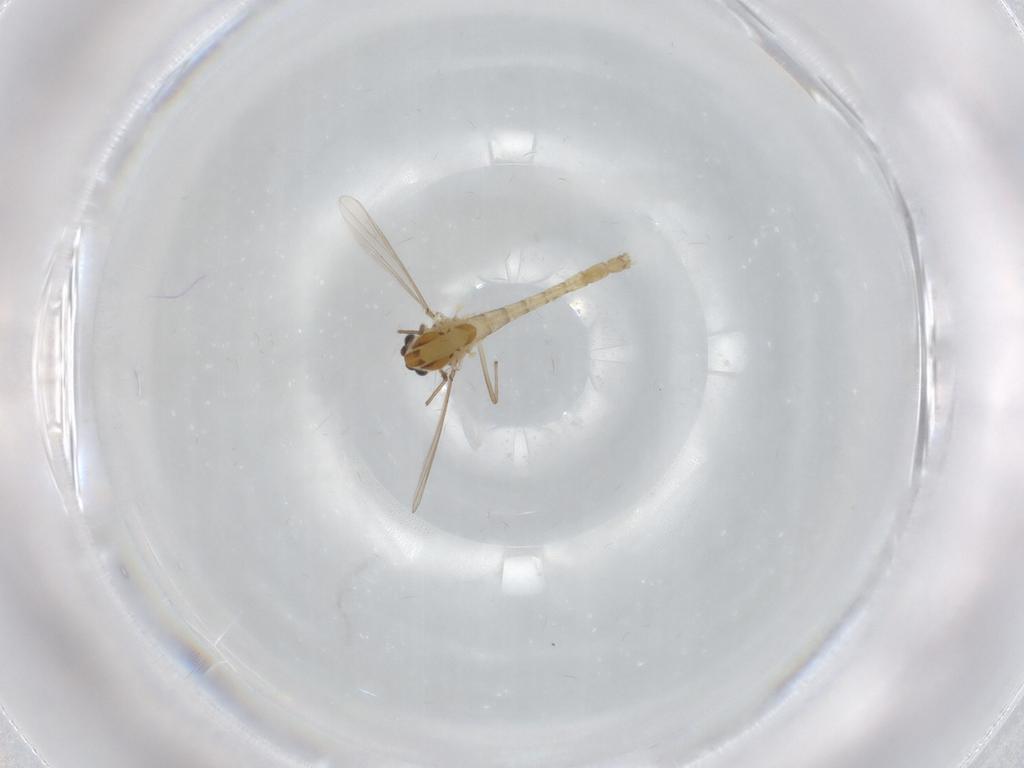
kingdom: Animalia
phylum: Arthropoda
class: Insecta
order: Diptera
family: Chironomidae
